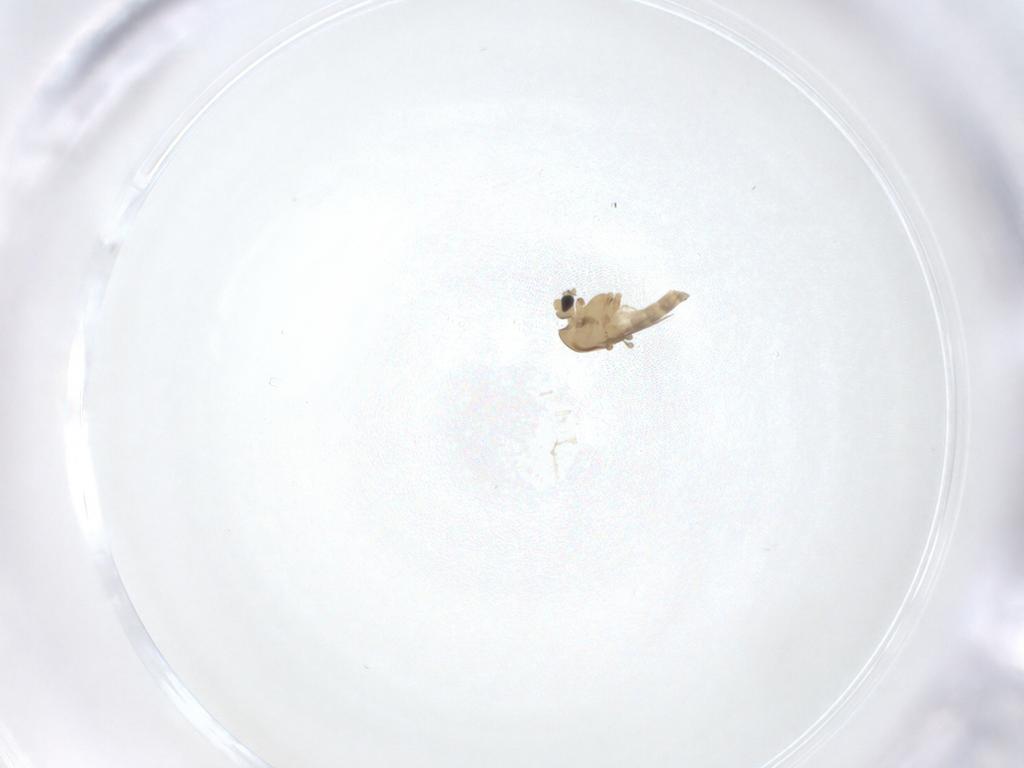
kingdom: Animalia
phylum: Arthropoda
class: Insecta
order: Diptera
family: Chironomidae
